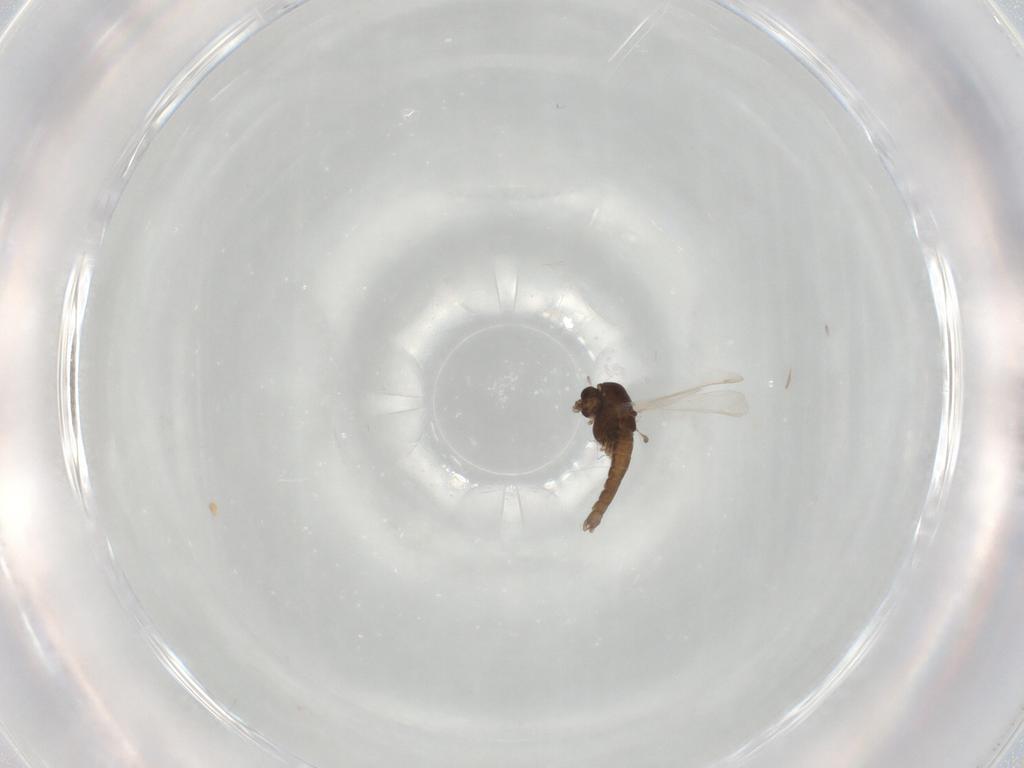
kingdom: Animalia
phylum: Arthropoda
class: Insecta
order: Diptera
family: Chironomidae
